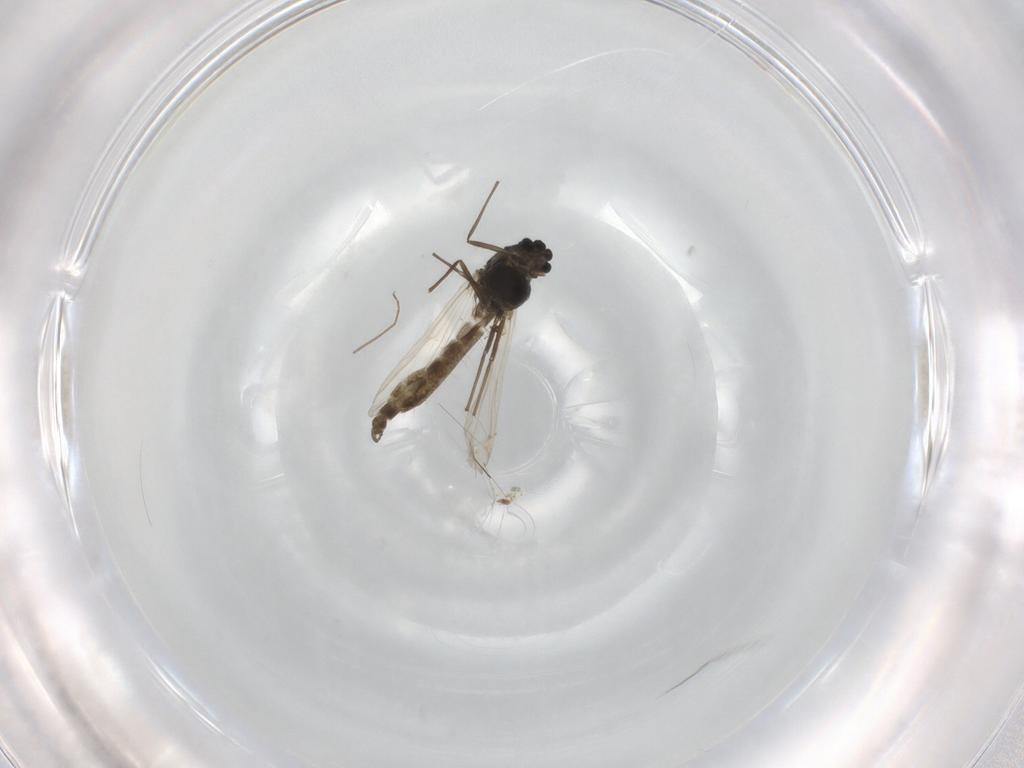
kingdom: Animalia
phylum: Arthropoda
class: Insecta
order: Diptera
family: Chironomidae
